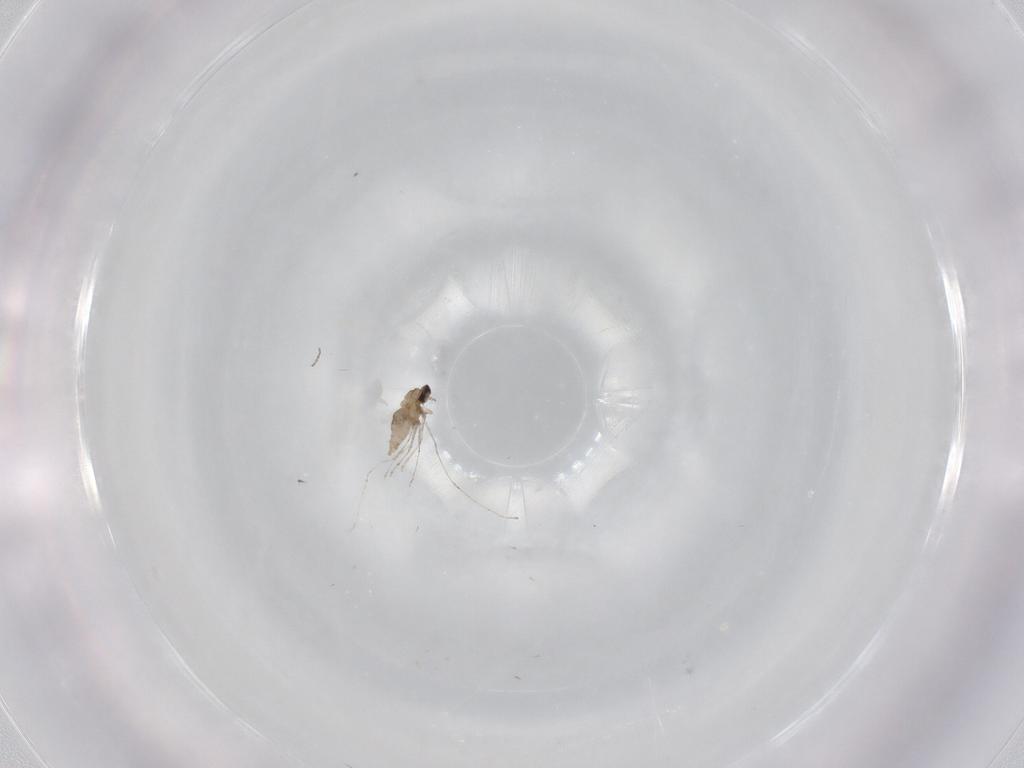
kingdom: Animalia
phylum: Arthropoda
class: Insecta
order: Diptera
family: Cecidomyiidae
